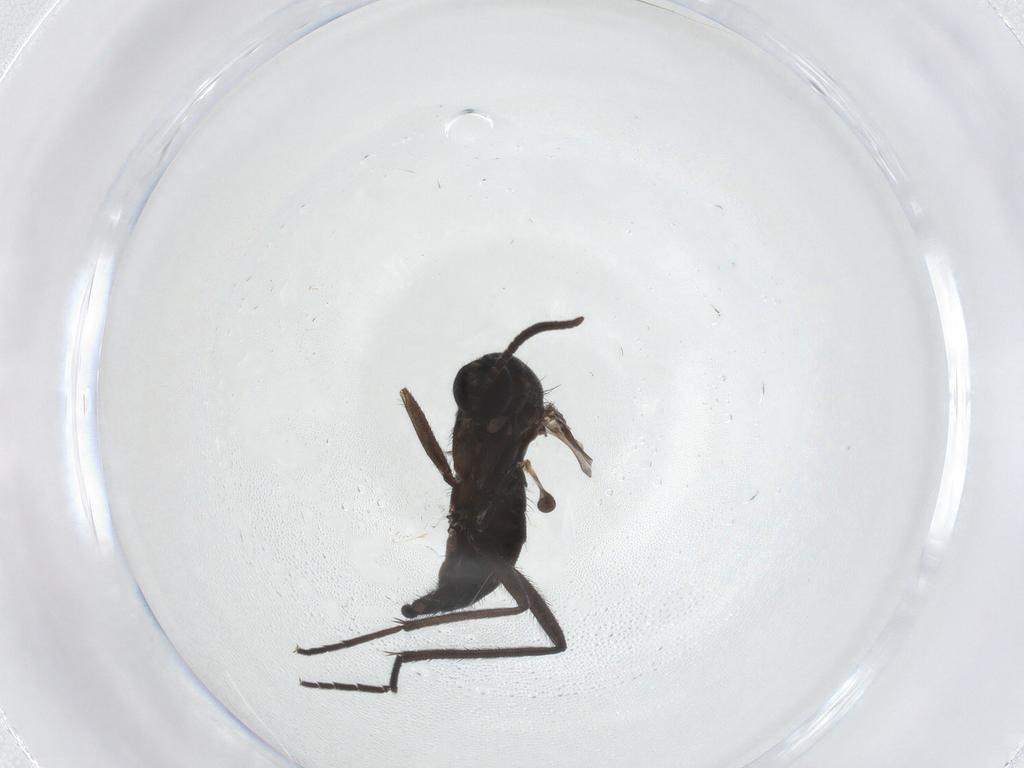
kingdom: Animalia
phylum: Arthropoda
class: Insecta
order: Diptera
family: Sciaridae
